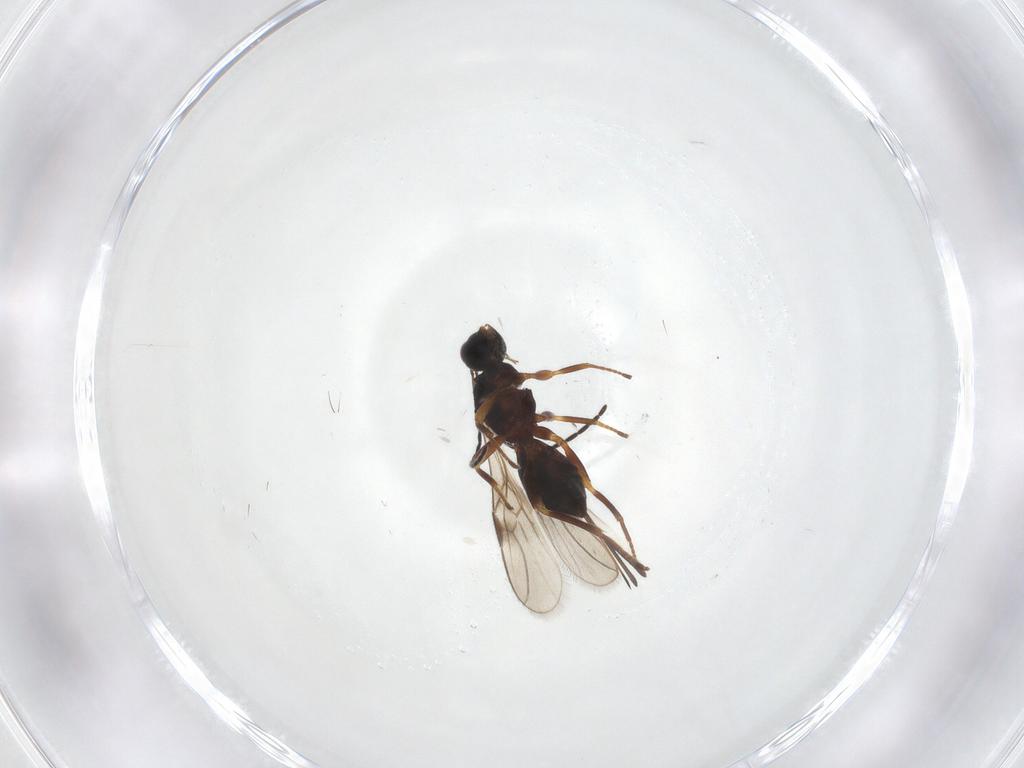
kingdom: Animalia
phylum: Arthropoda
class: Insecta
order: Hymenoptera
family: Braconidae
